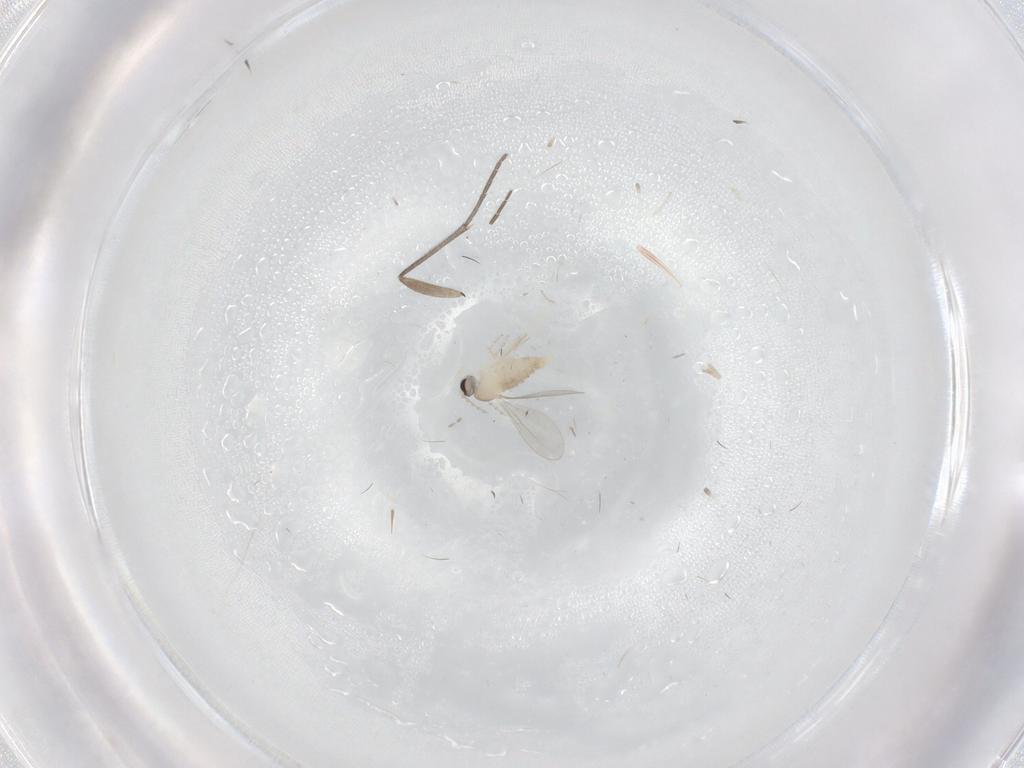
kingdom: Animalia
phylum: Arthropoda
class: Insecta
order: Diptera
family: Cecidomyiidae
